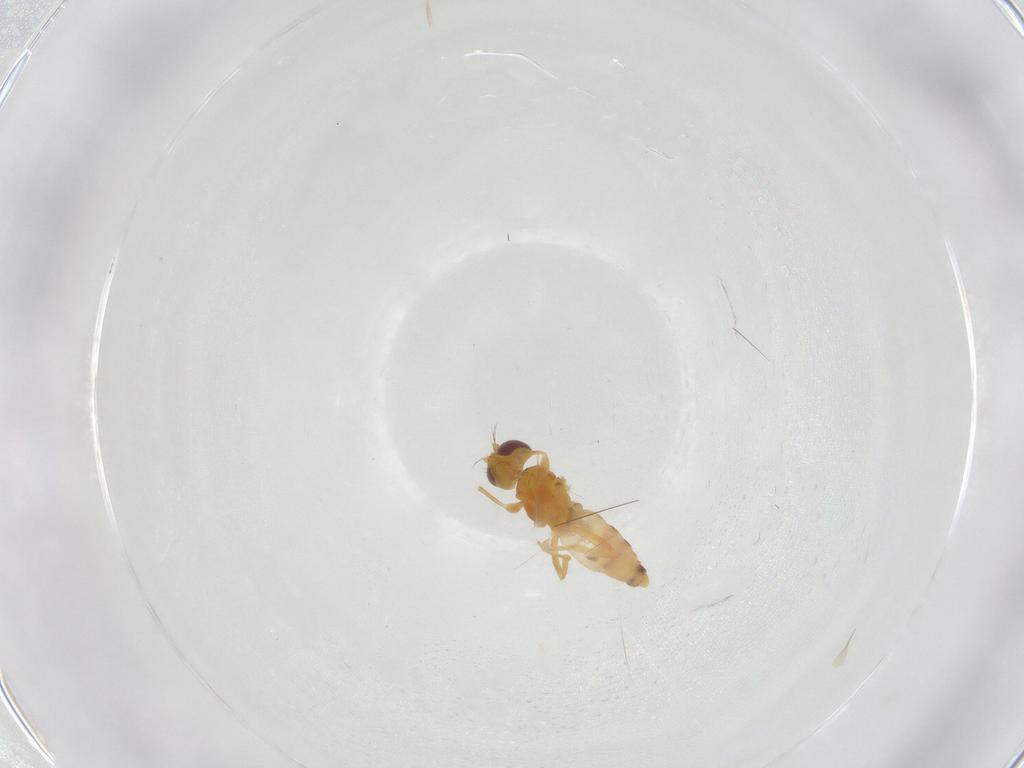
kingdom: Animalia
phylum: Arthropoda
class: Insecta
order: Diptera
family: Periscelididae
